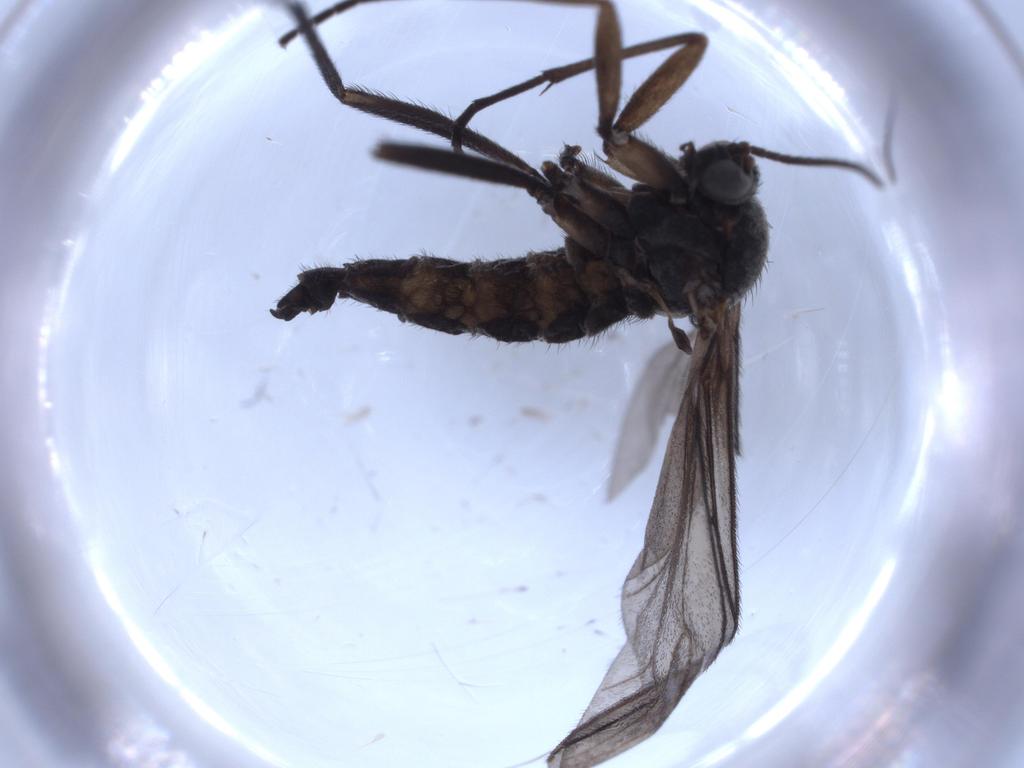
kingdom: Animalia
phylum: Arthropoda
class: Insecta
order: Diptera
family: Sciaridae
